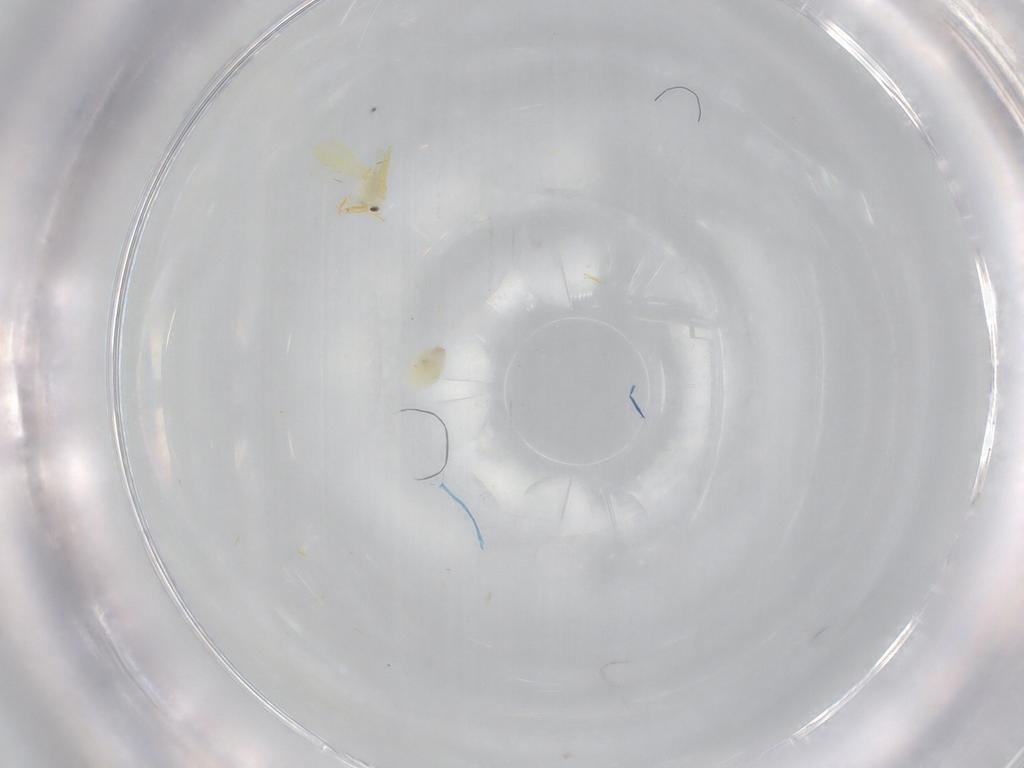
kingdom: Animalia
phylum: Arthropoda
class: Insecta
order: Hemiptera
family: Aleyrodidae
